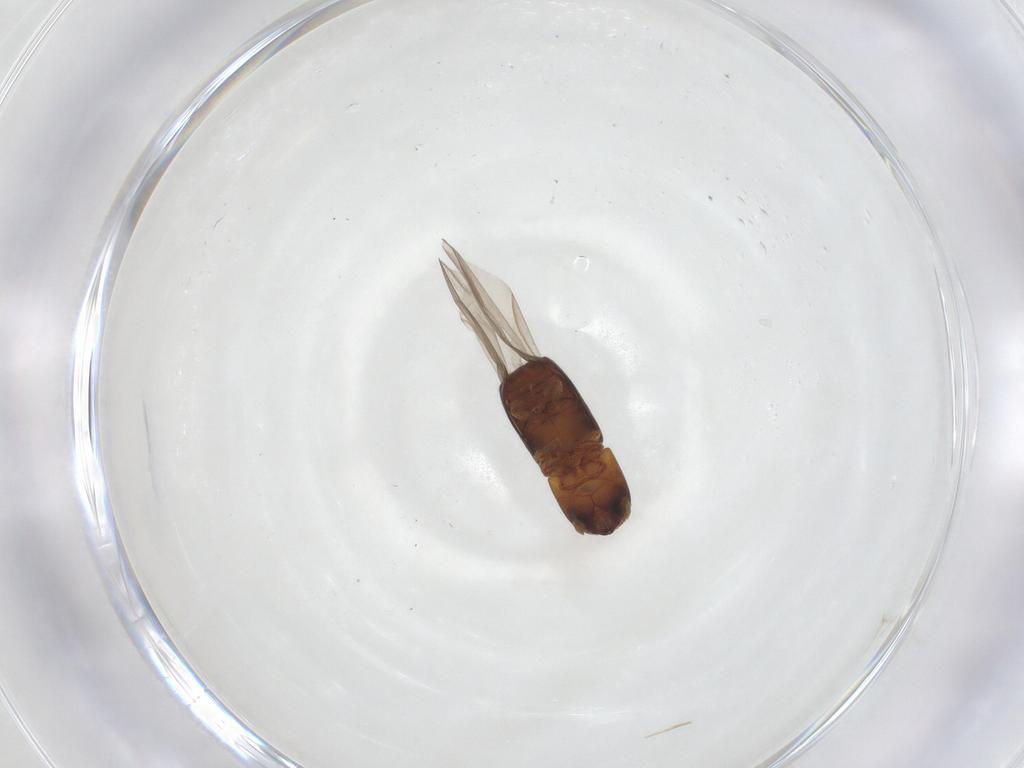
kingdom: Animalia
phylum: Arthropoda
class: Insecta
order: Coleoptera
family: Curculionidae
